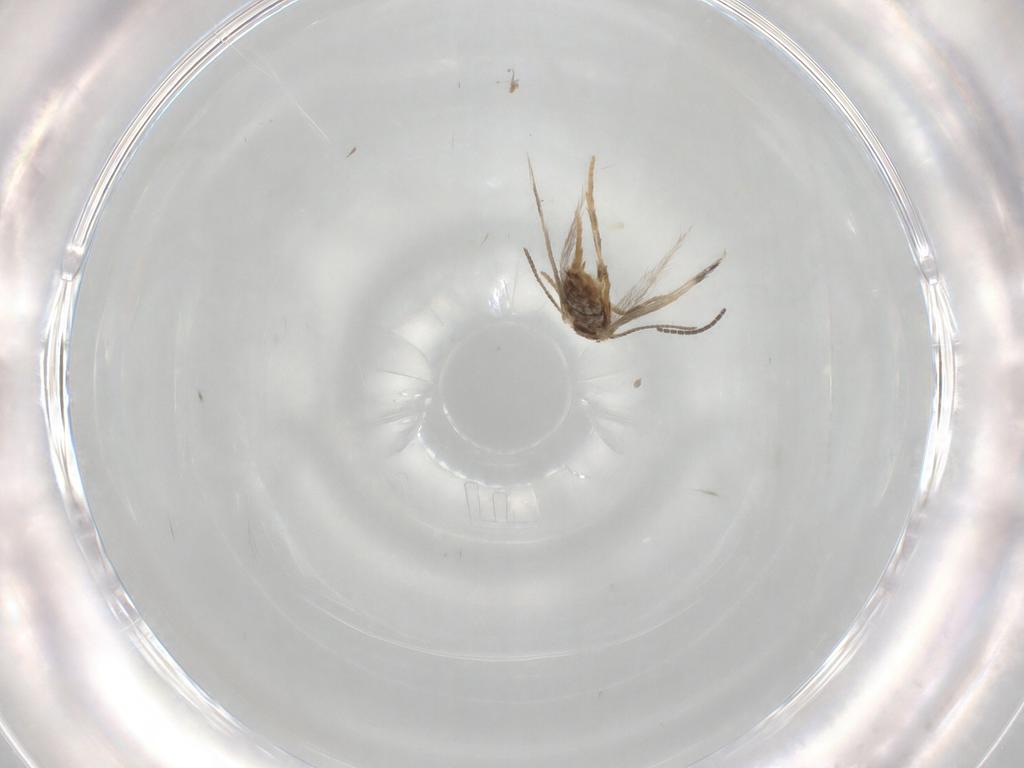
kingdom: Animalia
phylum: Arthropoda
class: Insecta
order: Lepidoptera
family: Nepticulidae
